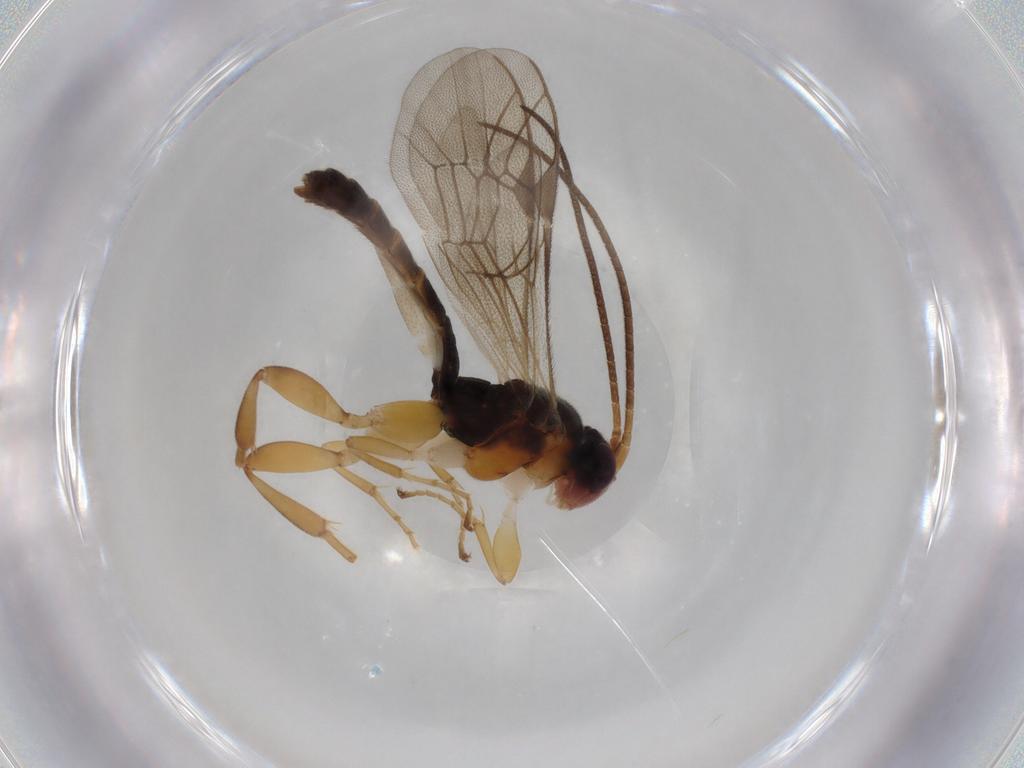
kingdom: Animalia
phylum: Arthropoda
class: Insecta
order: Hymenoptera
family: Ichneumonidae
